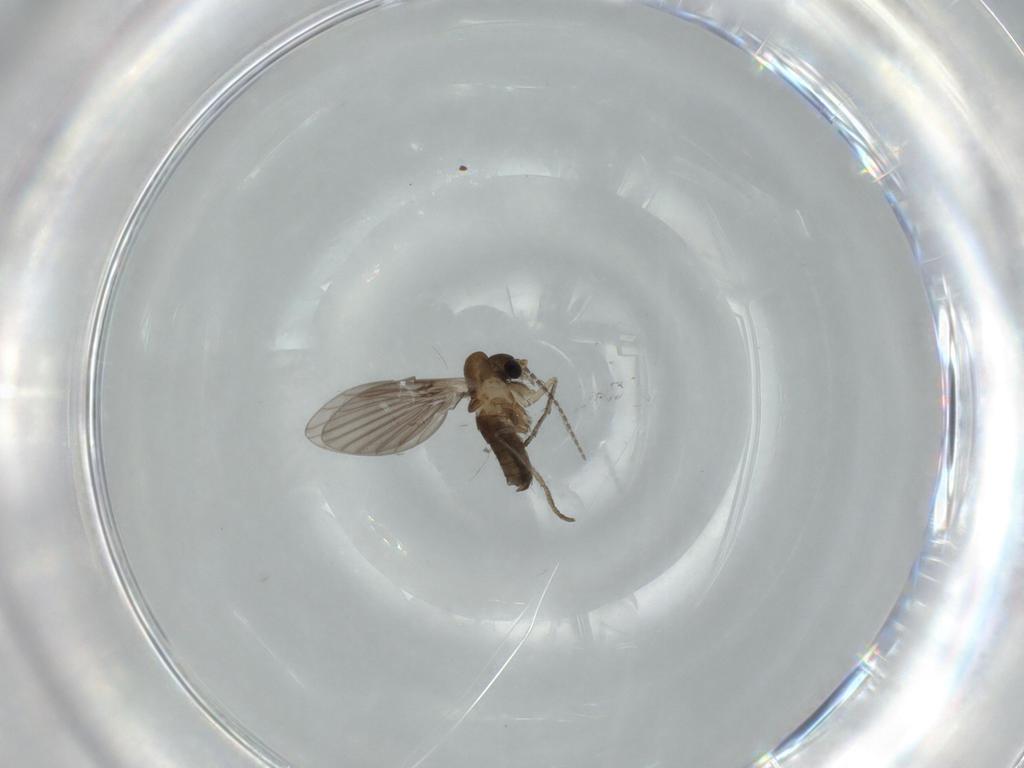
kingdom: Animalia
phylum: Arthropoda
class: Insecta
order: Diptera
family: Psychodidae
